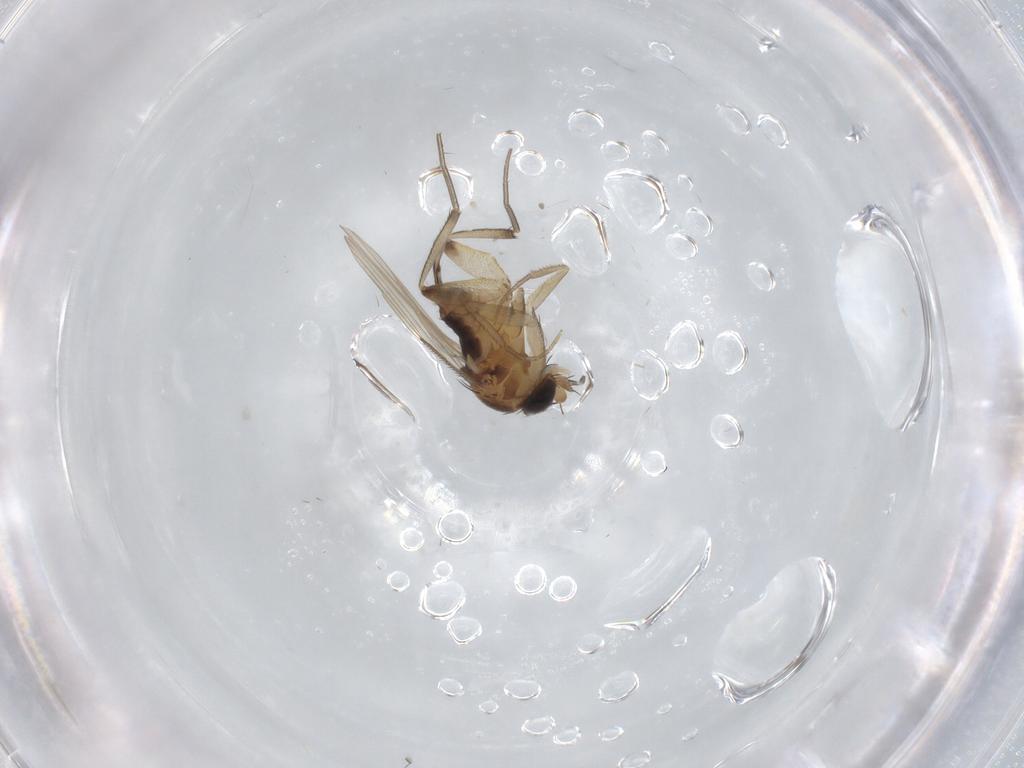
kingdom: Animalia
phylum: Arthropoda
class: Insecta
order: Diptera
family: Phoridae
